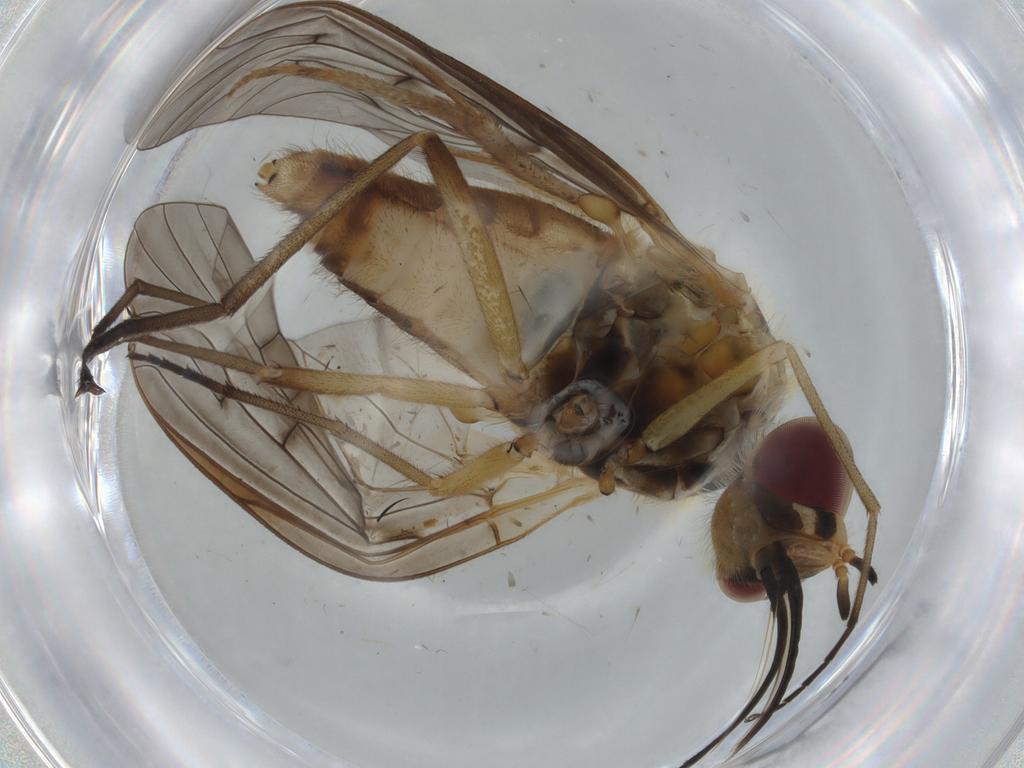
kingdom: Animalia
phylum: Arthropoda
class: Insecta
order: Diptera
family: Bombyliidae
